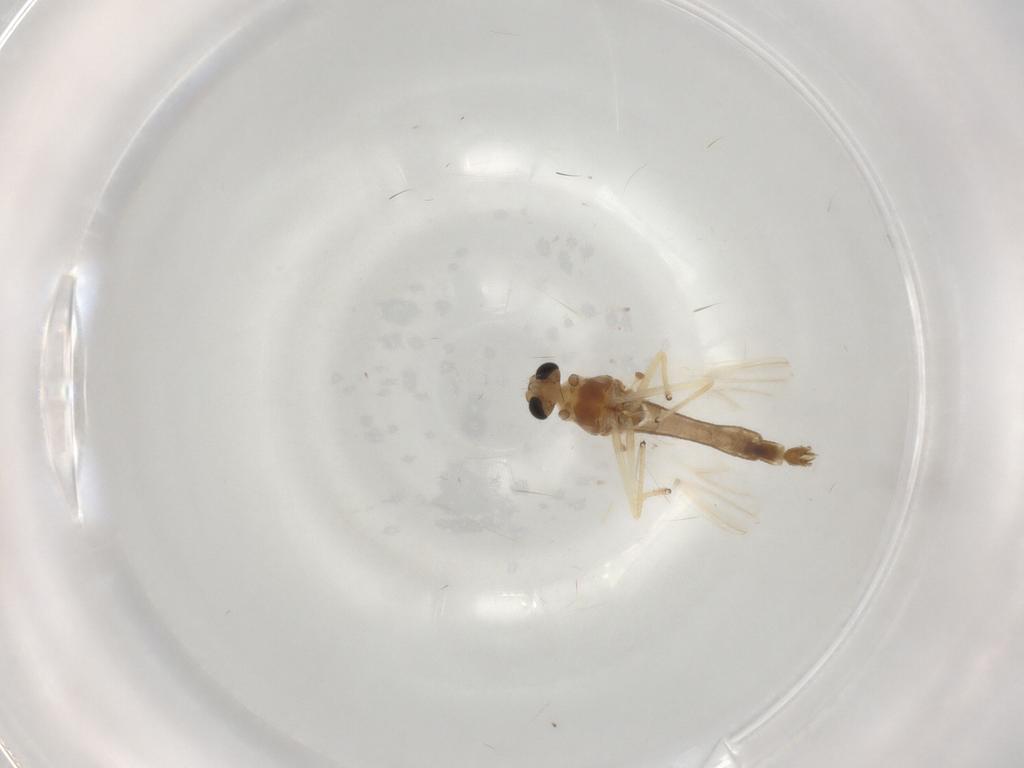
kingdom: Animalia
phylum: Arthropoda
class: Insecta
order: Diptera
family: Chironomidae
